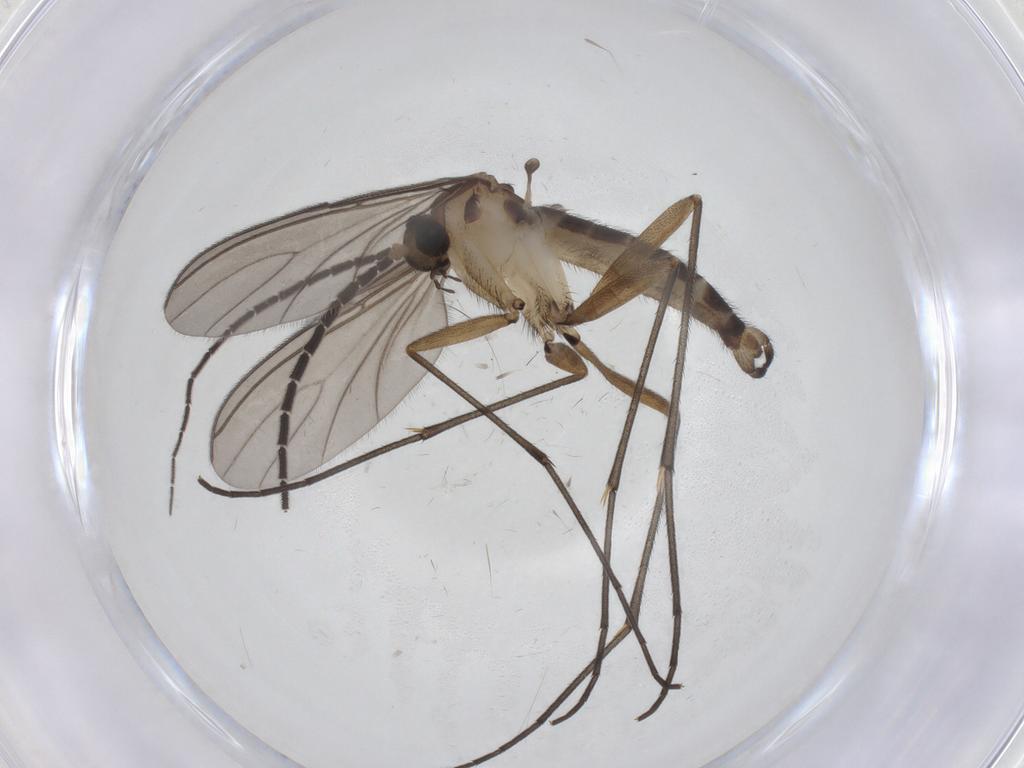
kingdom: Animalia
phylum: Arthropoda
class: Insecta
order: Diptera
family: Sciaridae
